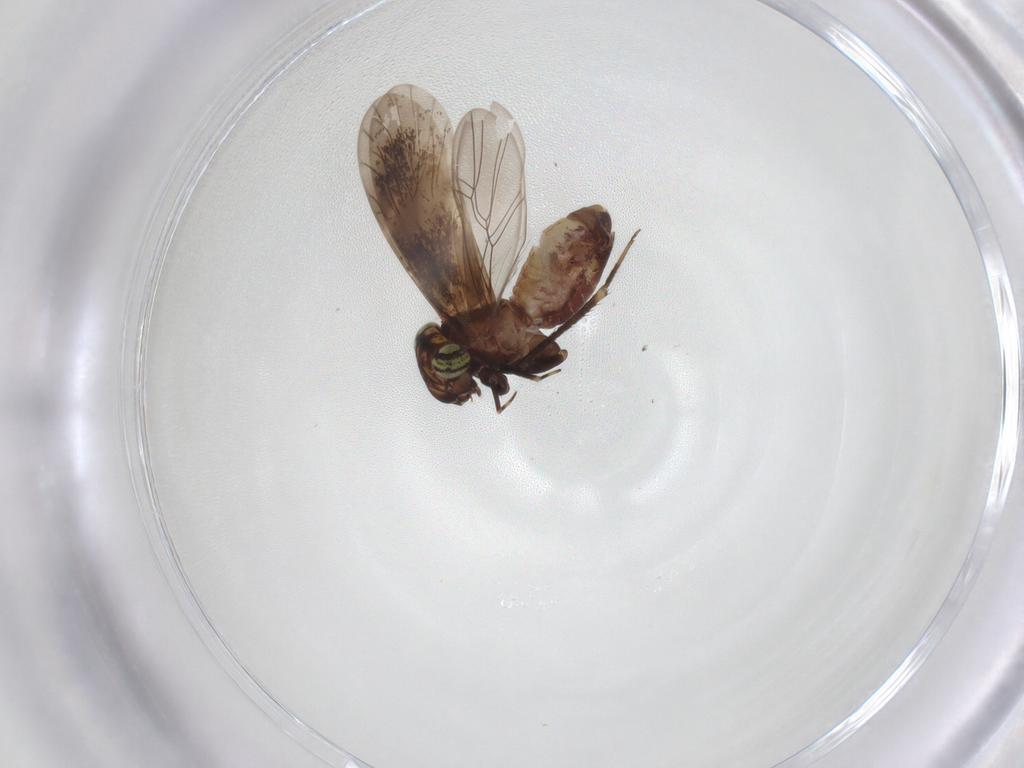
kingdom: Animalia
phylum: Arthropoda
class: Insecta
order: Psocodea
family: Amphientomidae
